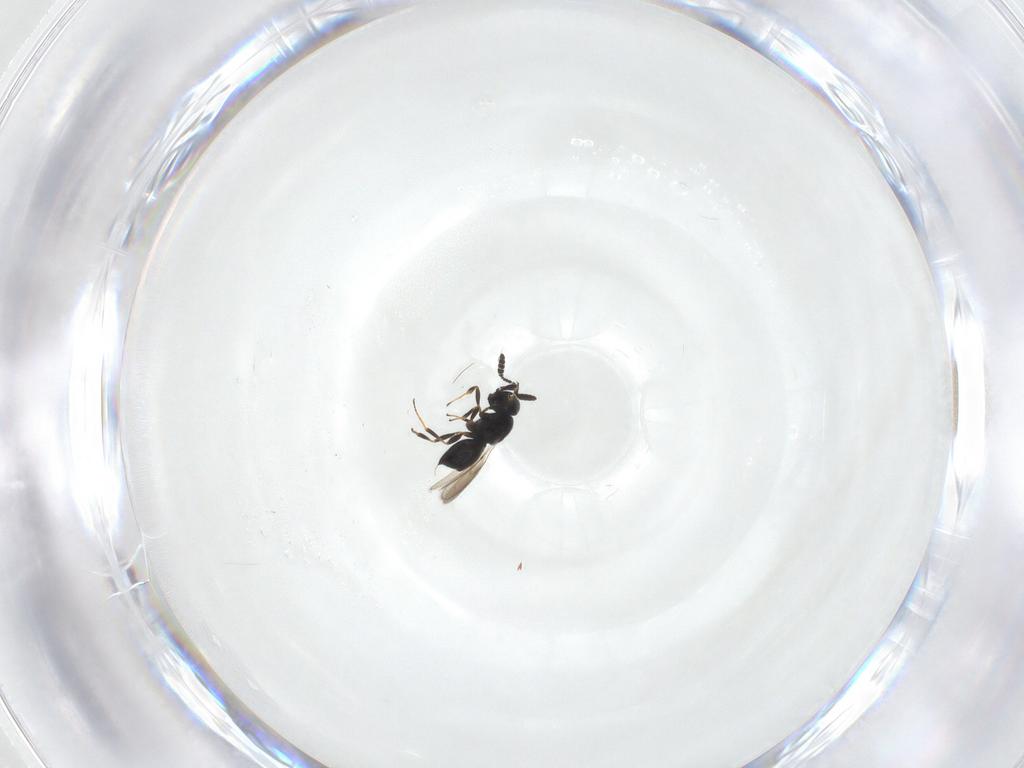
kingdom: Animalia
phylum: Arthropoda
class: Insecta
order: Hymenoptera
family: Scelionidae
